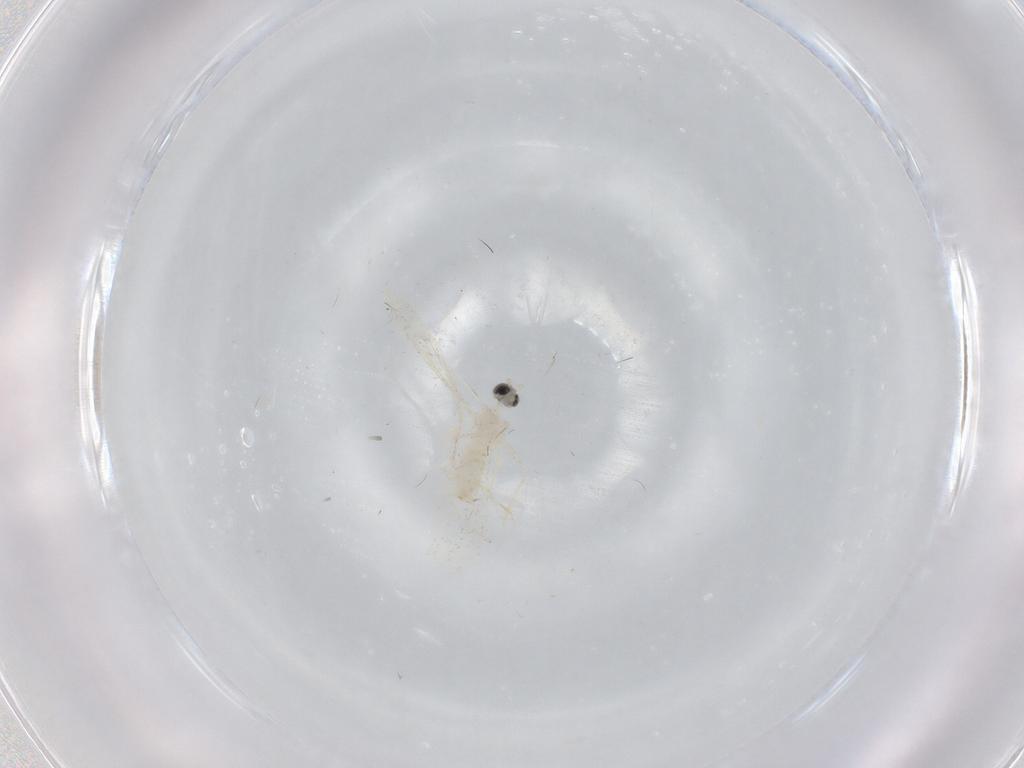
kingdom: Animalia
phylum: Arthropoda
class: Insecta
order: Diptera
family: Cecidomyiidae
